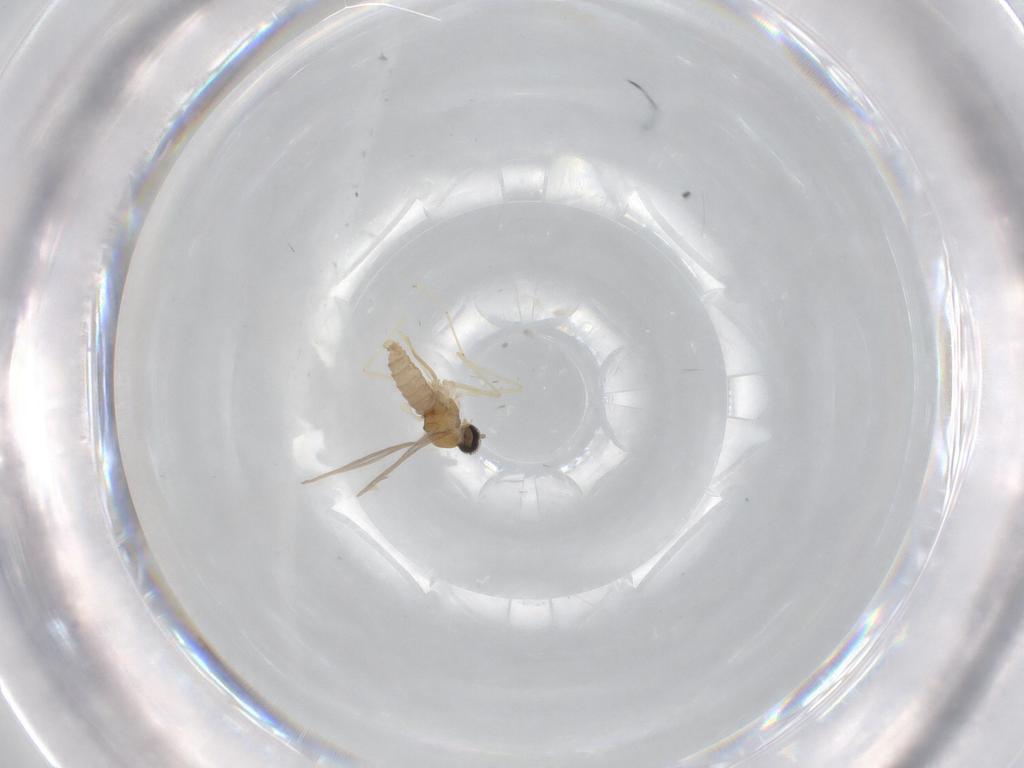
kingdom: Animalia
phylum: Arthropoda
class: Insecta
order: Diptera
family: Cecidomyiidae
